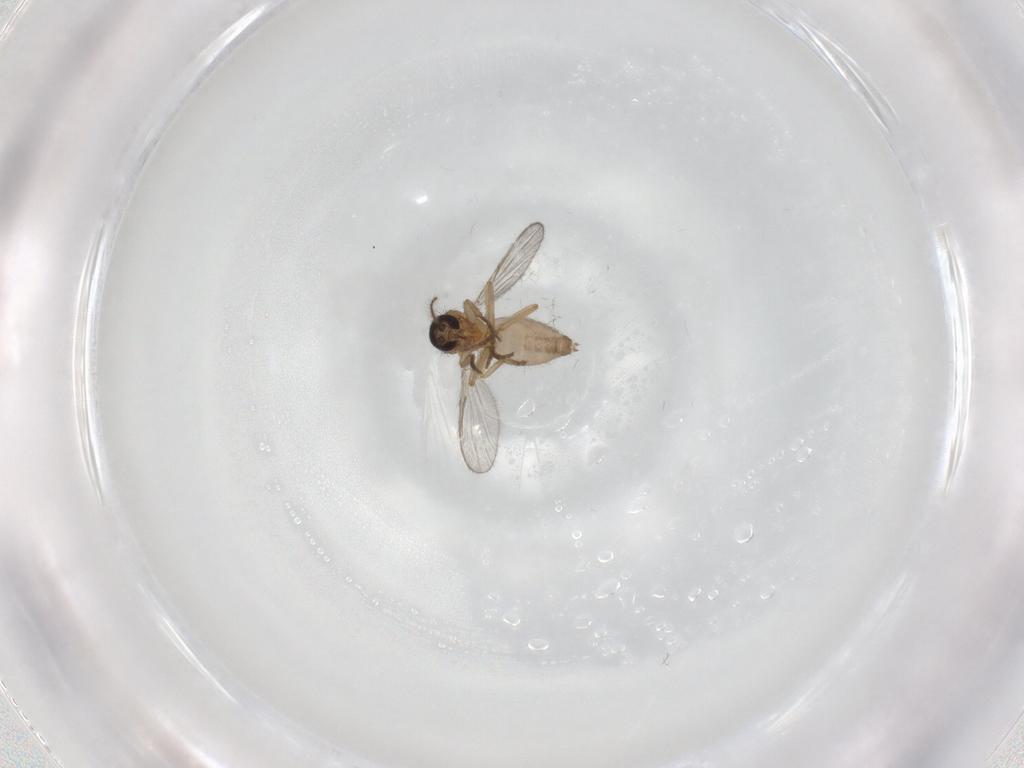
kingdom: Animalia
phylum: Arthropoda
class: Insecta
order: Diptera
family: Ceratopogonidae
